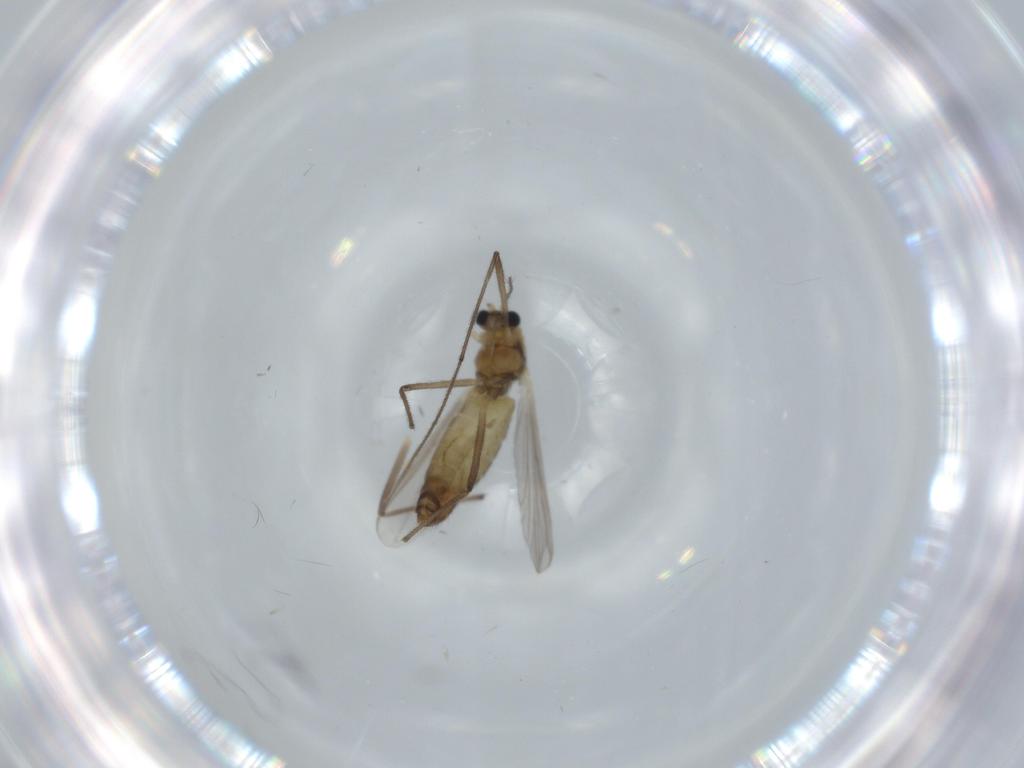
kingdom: Animalia
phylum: Arthropoda
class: Insecta
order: Diptera
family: Chironomidae
